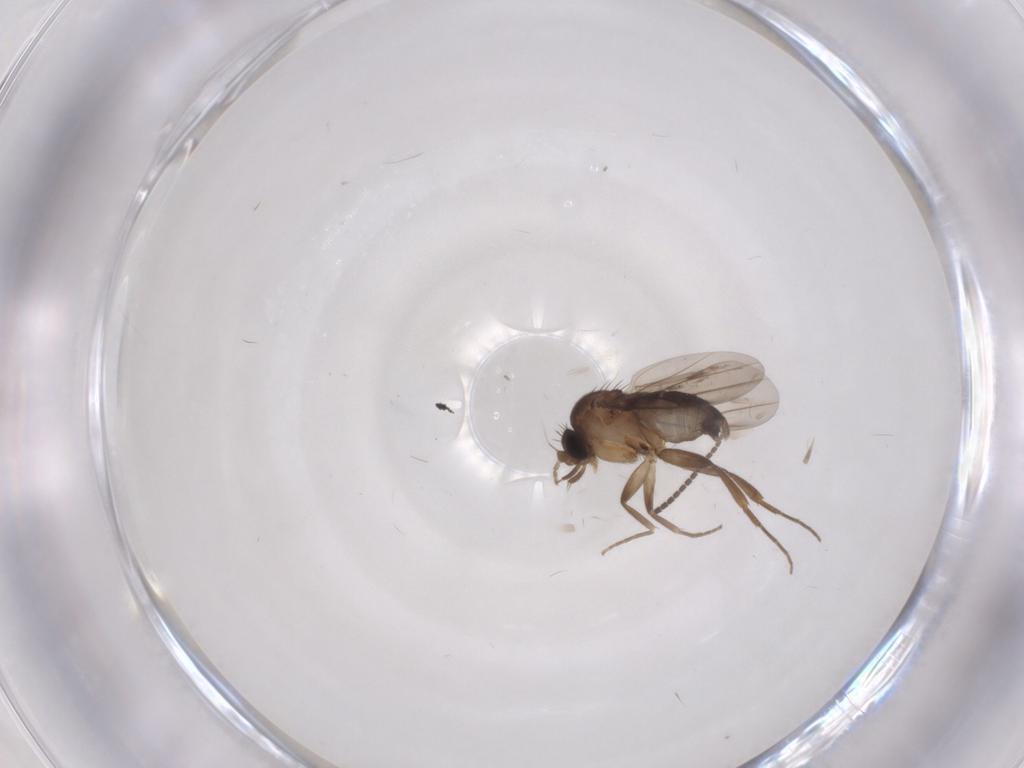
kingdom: Animalia
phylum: Arthropoda
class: Insecta
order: Diptera
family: Phoridae
